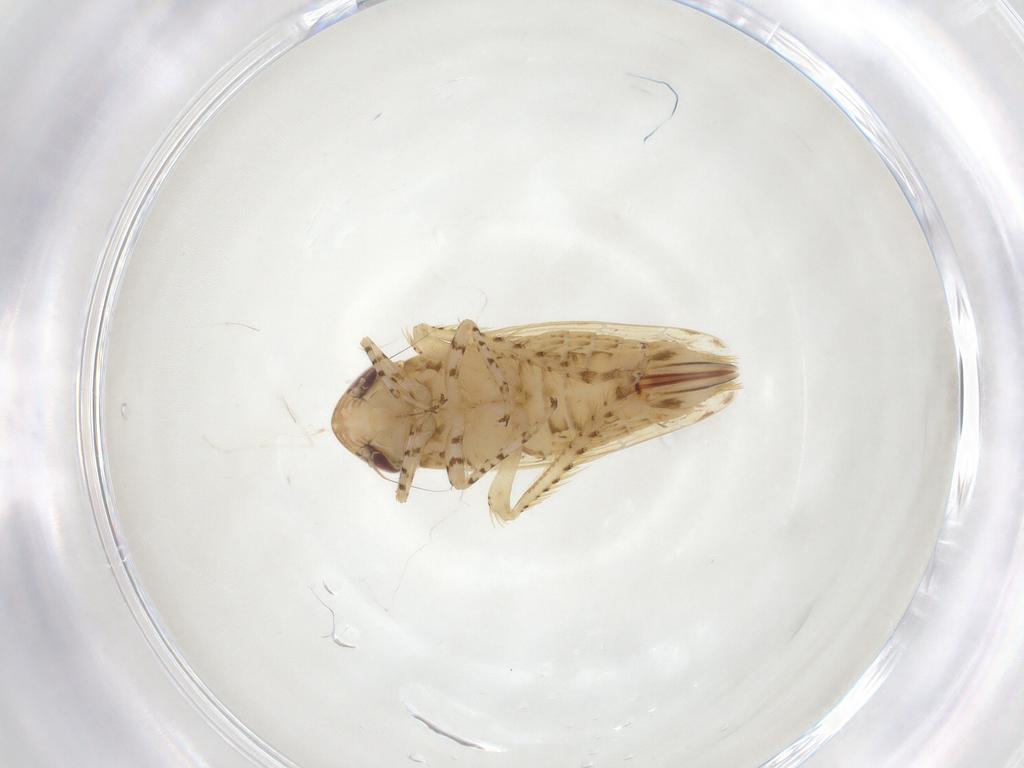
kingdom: Animalia
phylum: Arthropoda
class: Insecta
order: Hemiptera
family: Cicadellidae
